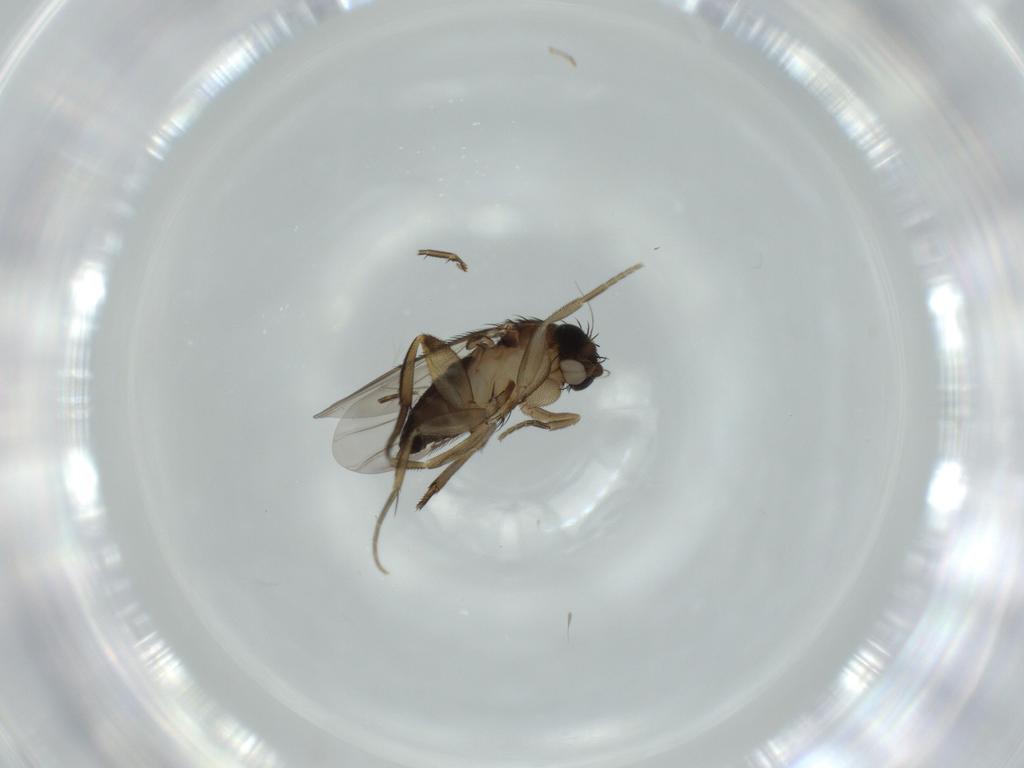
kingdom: Animalia
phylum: Arthropoda
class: Insecta
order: Diptera
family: Phoridae
